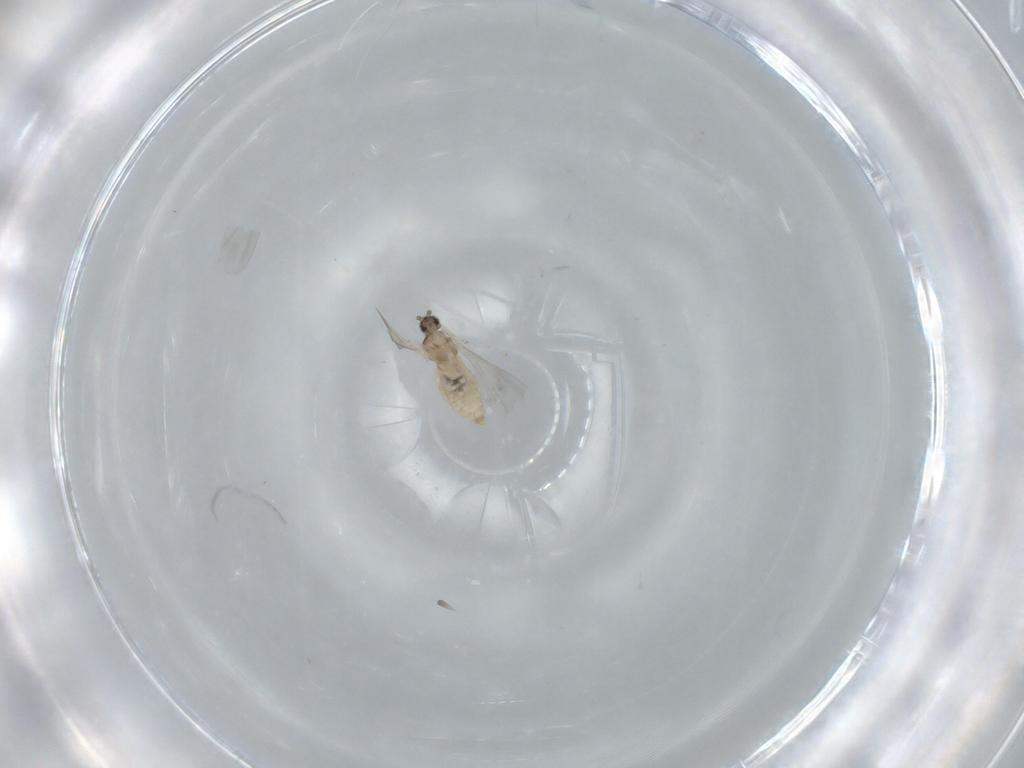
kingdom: Animalia
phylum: Arthropoda
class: Insecta
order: Diptera
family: Cecidomyiidae
